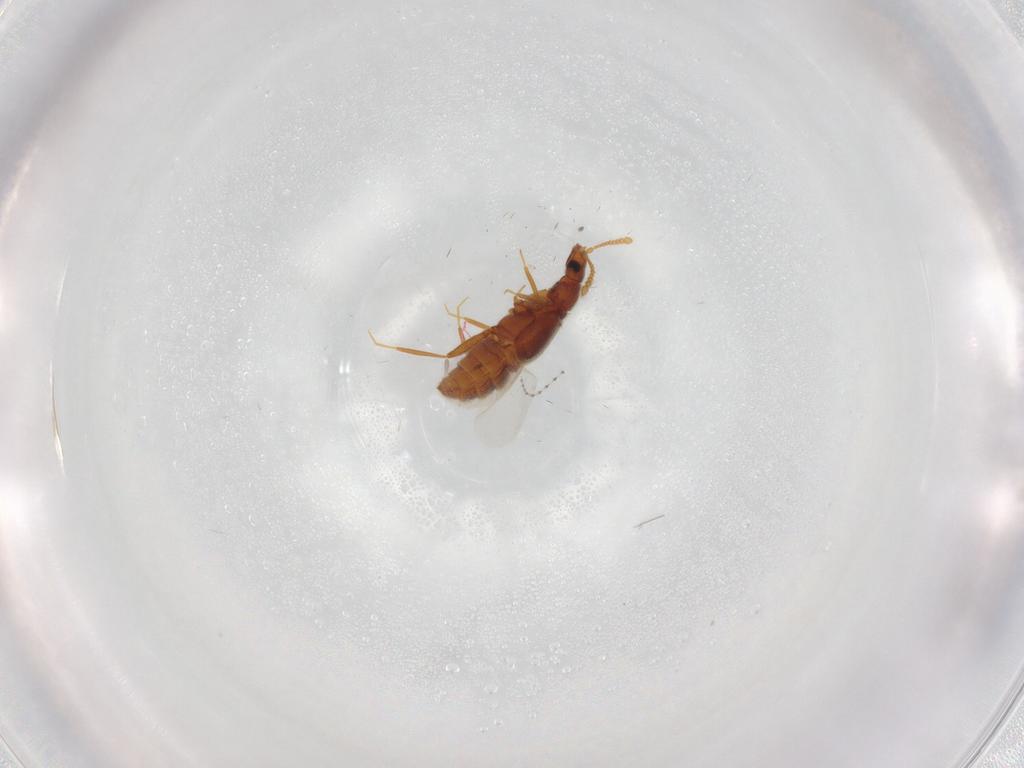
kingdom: Animalia
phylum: Arthropoda
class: Insecta
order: Coleoptera
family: Staphylinidae
